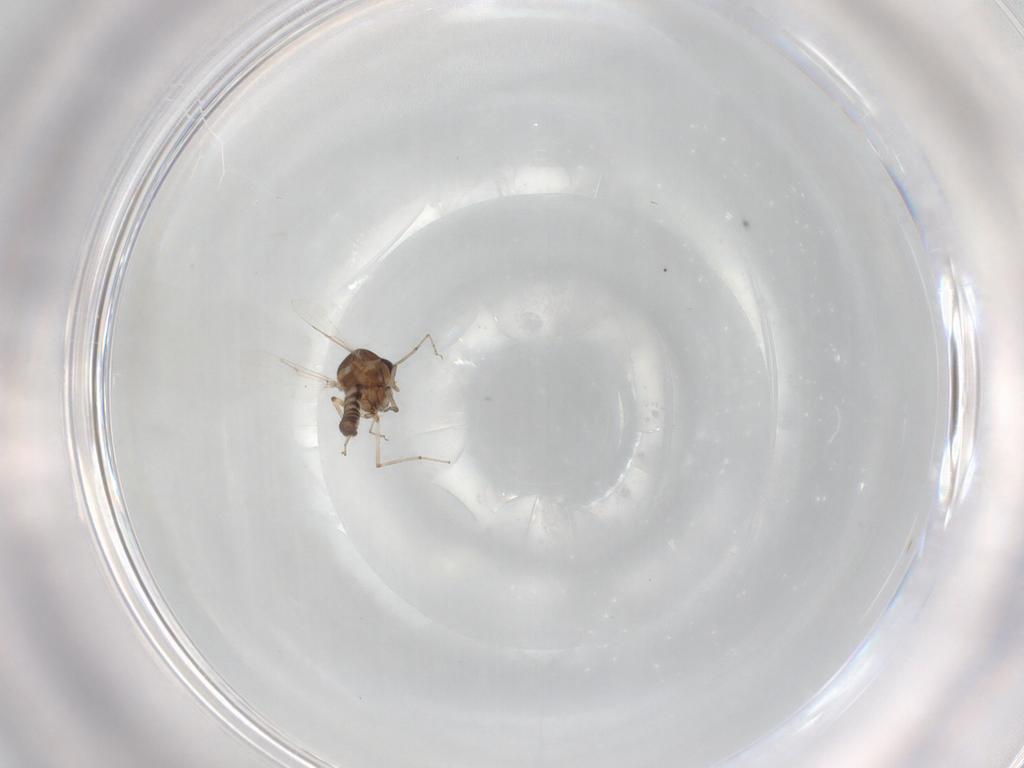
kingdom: Animalia
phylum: Arthropoda
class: Insecta
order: Diptera
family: Ceratopogonidae
